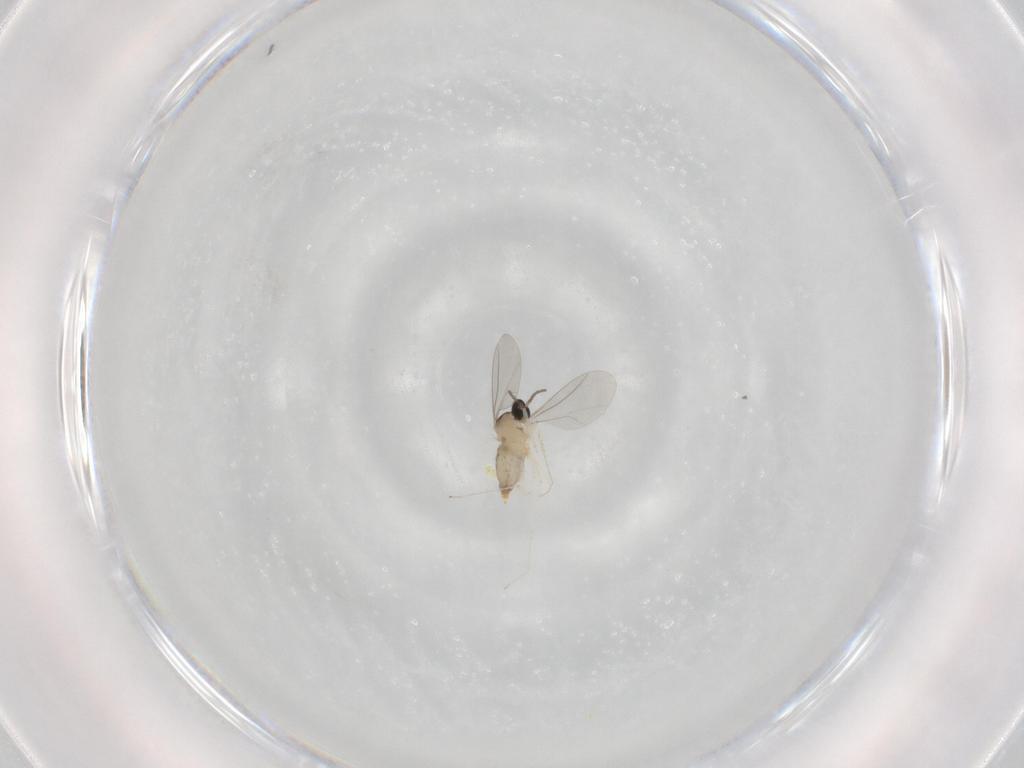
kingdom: Animalia
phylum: Arthropoda
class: Insecta
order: Diptera
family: Cecidomyiidae
